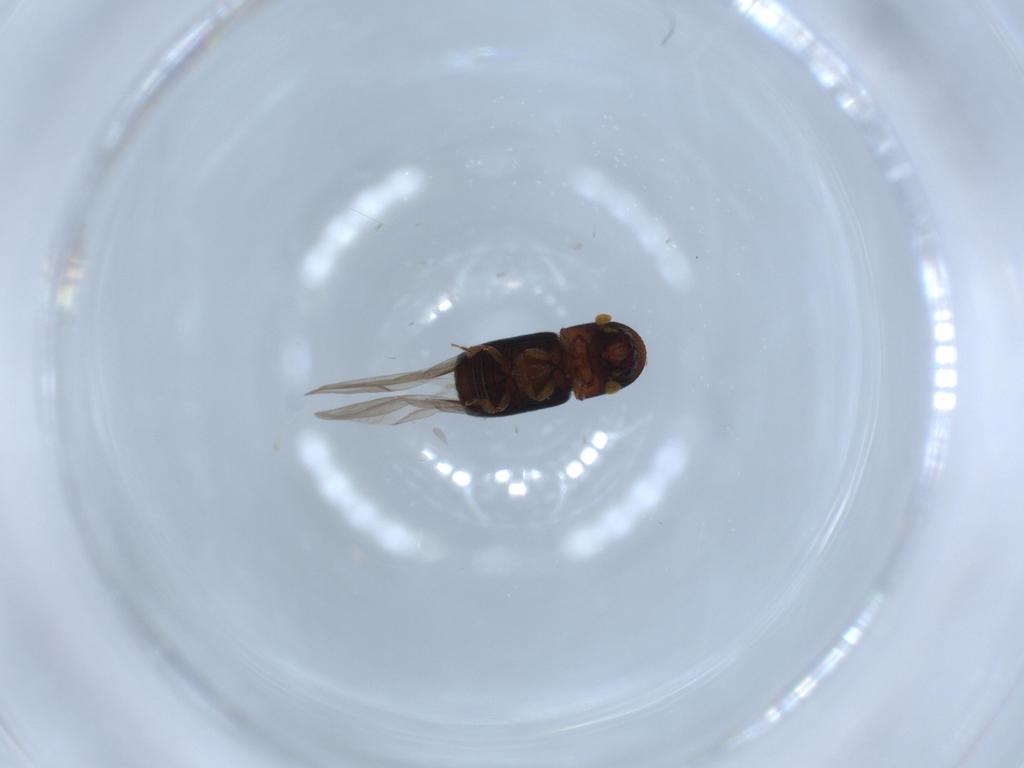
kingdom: Animalia
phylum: Arthropoda
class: Insecta
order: Coleoptera
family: Curculionidae
